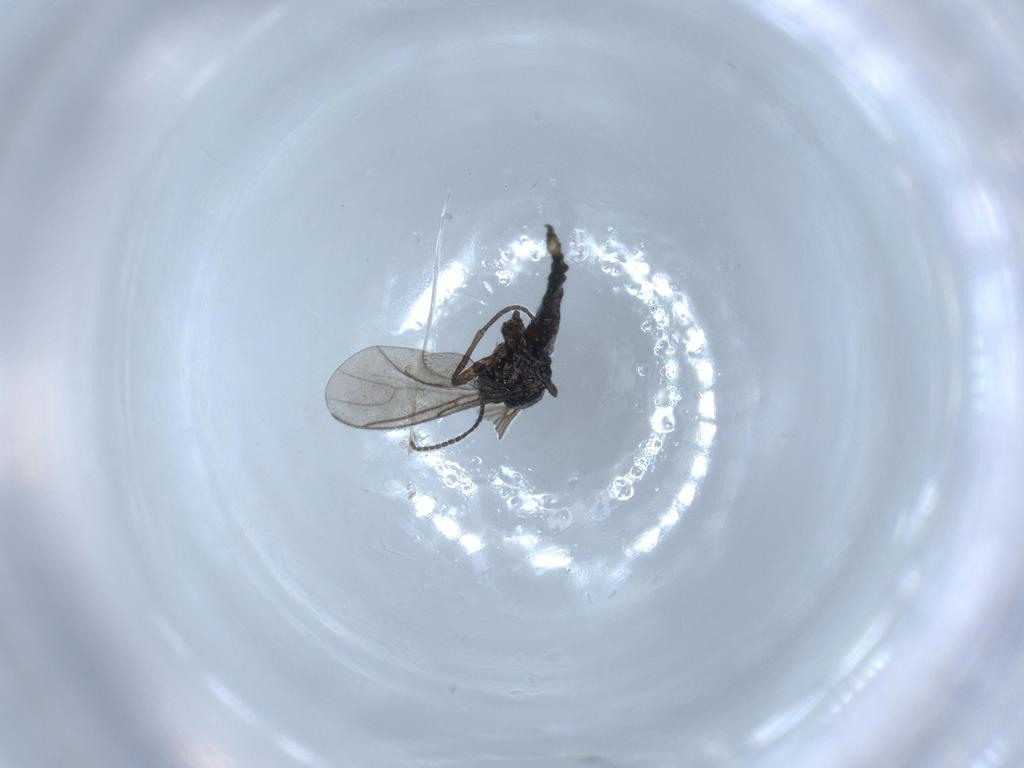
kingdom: Animalia
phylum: Arthropoda
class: Insecta
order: Diptera
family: Sciaridae
